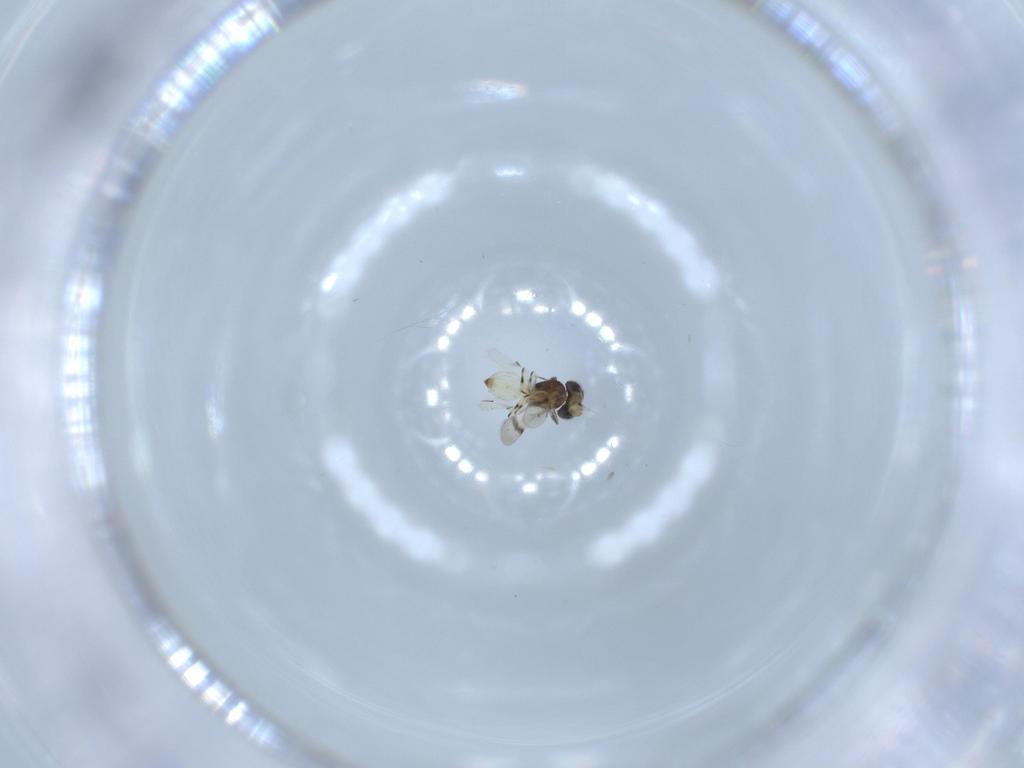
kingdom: Animalia
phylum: Arthropoda
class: Insecta
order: Hymenoptera
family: Scelionidae
